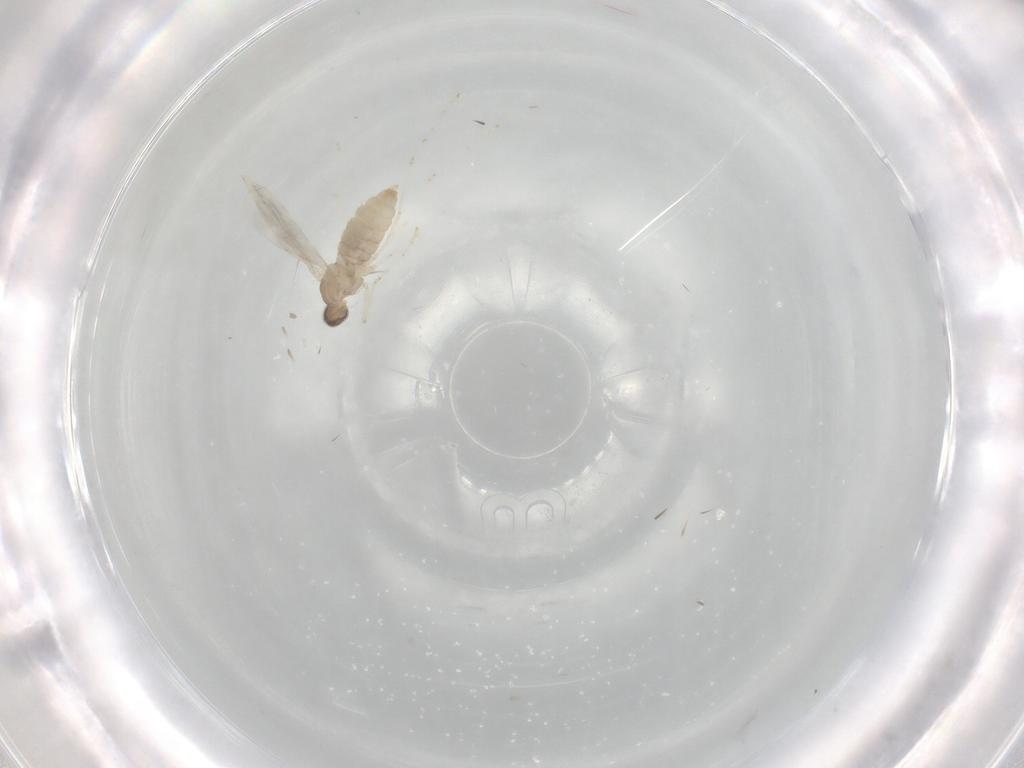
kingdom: Animalia
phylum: Arthropoda
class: Insecta
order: Diptera
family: Cecidomyiidae
